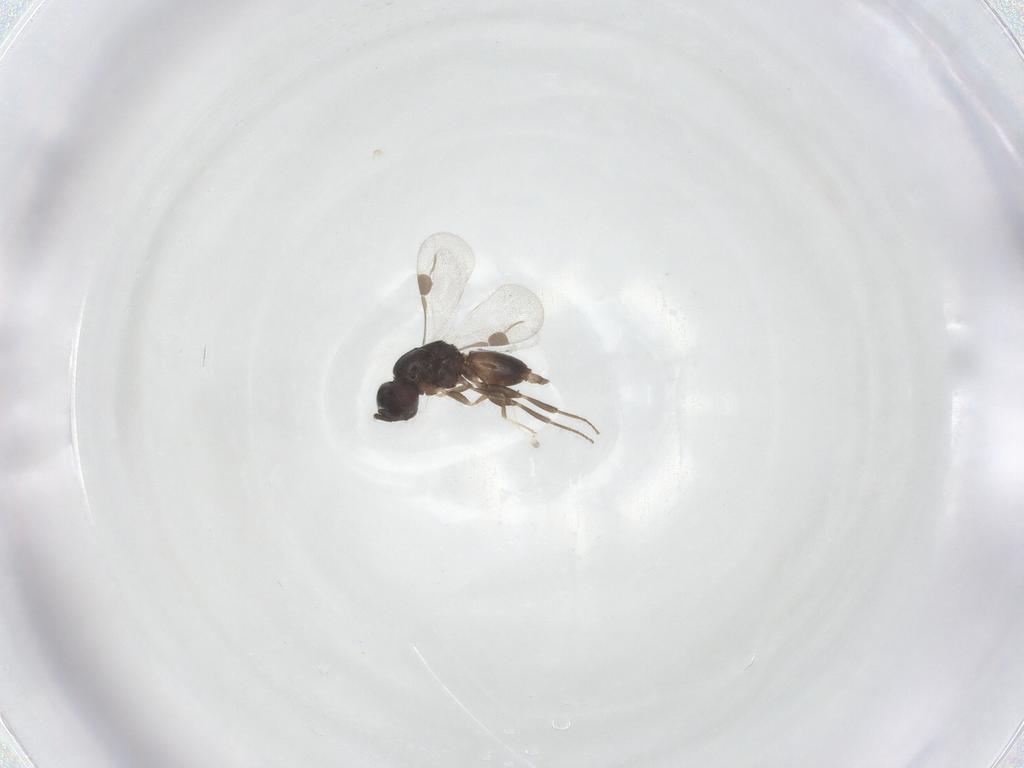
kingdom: Animalia
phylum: Arthropoda
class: Insecta
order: Hymenoptera
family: Megaspilidae
